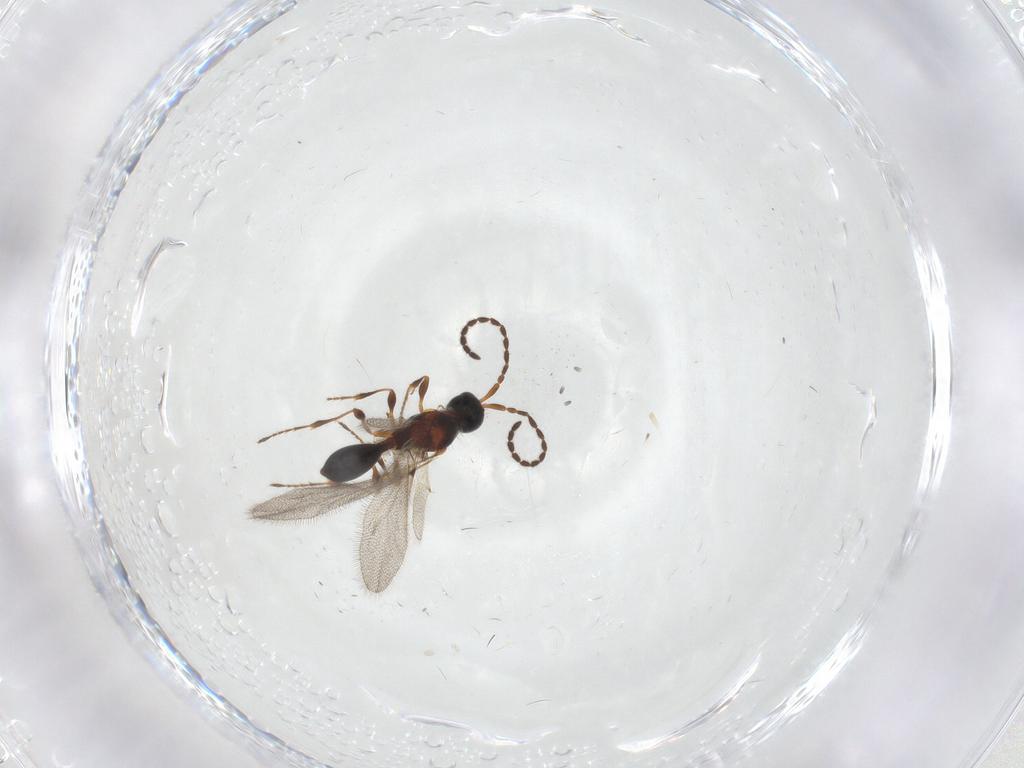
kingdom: Animalia
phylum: Arthropoda
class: Insecta
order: Hymenoptera
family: Diapriidae
